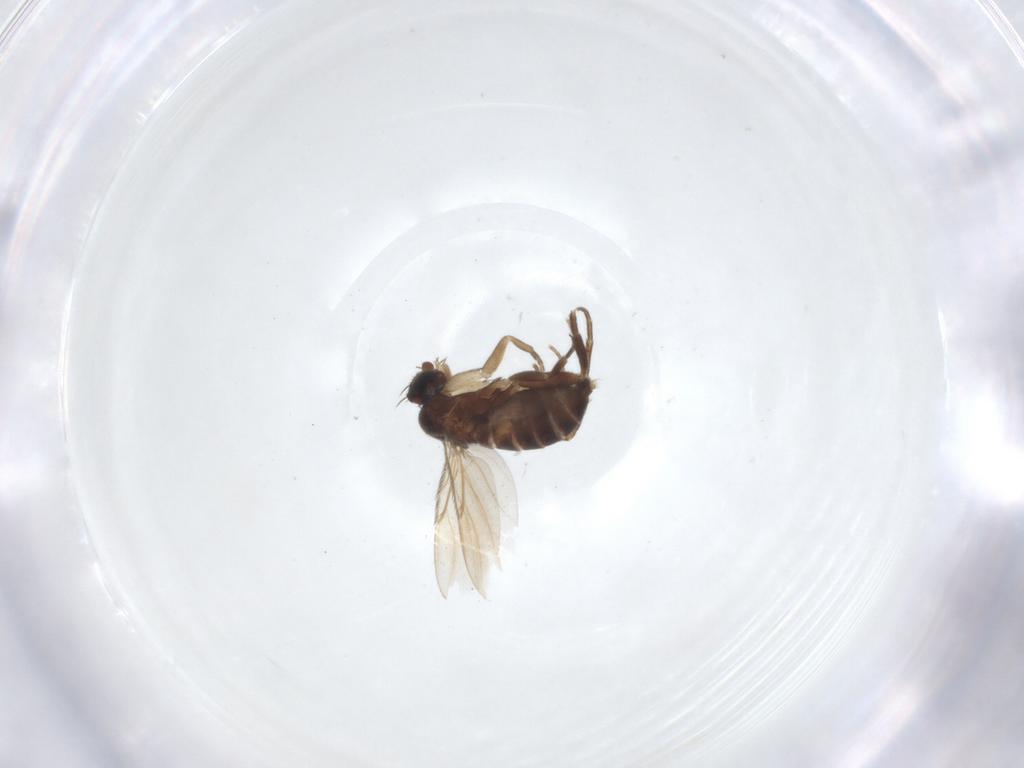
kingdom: Animalia
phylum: Arthropoda
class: Insecta
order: Diptera
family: Phoridae
